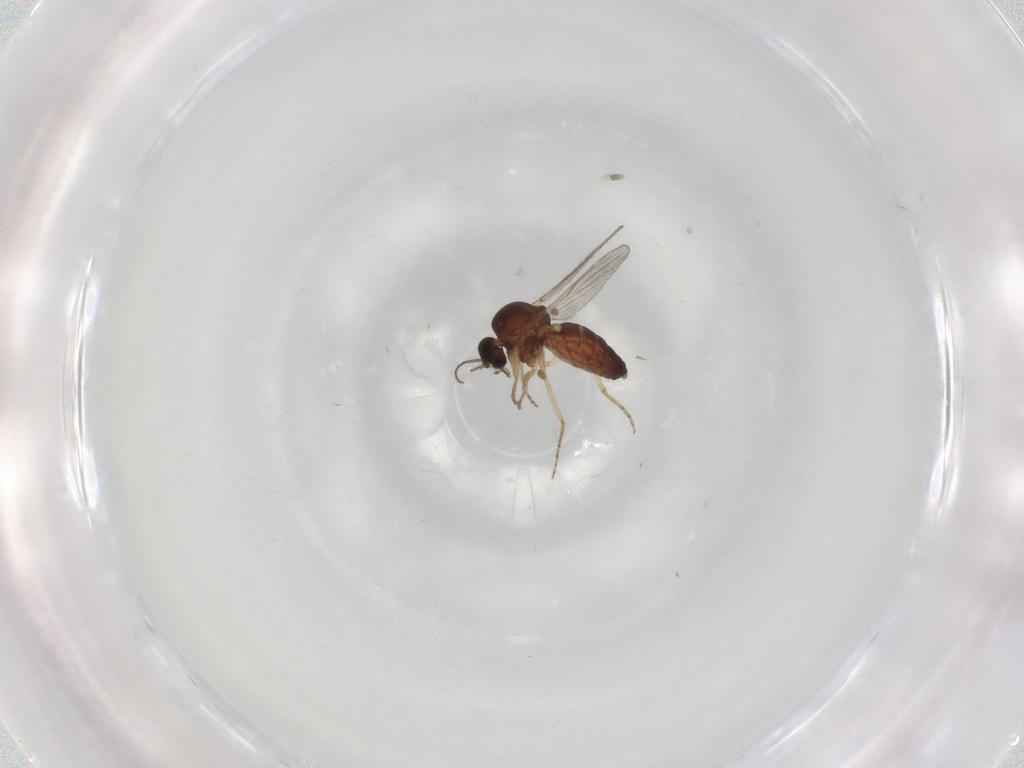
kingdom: Animalia
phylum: Arthropoda
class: Insecta
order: Diptera
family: Ceratopogonidae
